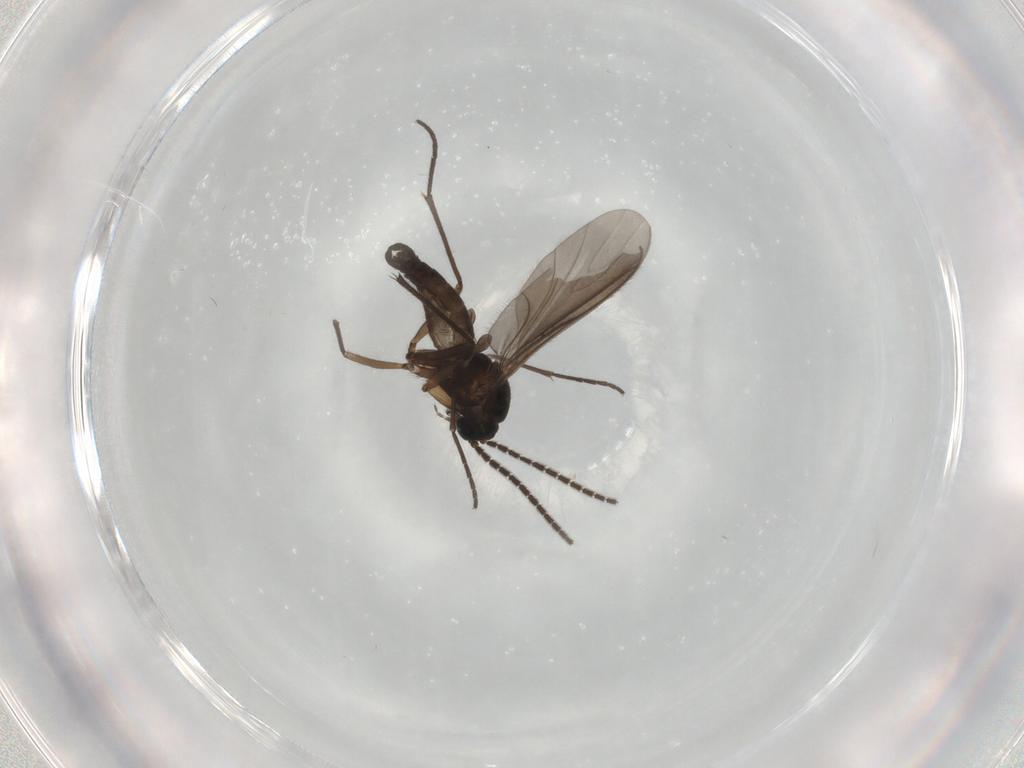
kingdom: Animalia
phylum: Arthropoda
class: Insecta
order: Diptera
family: Sciaridae
